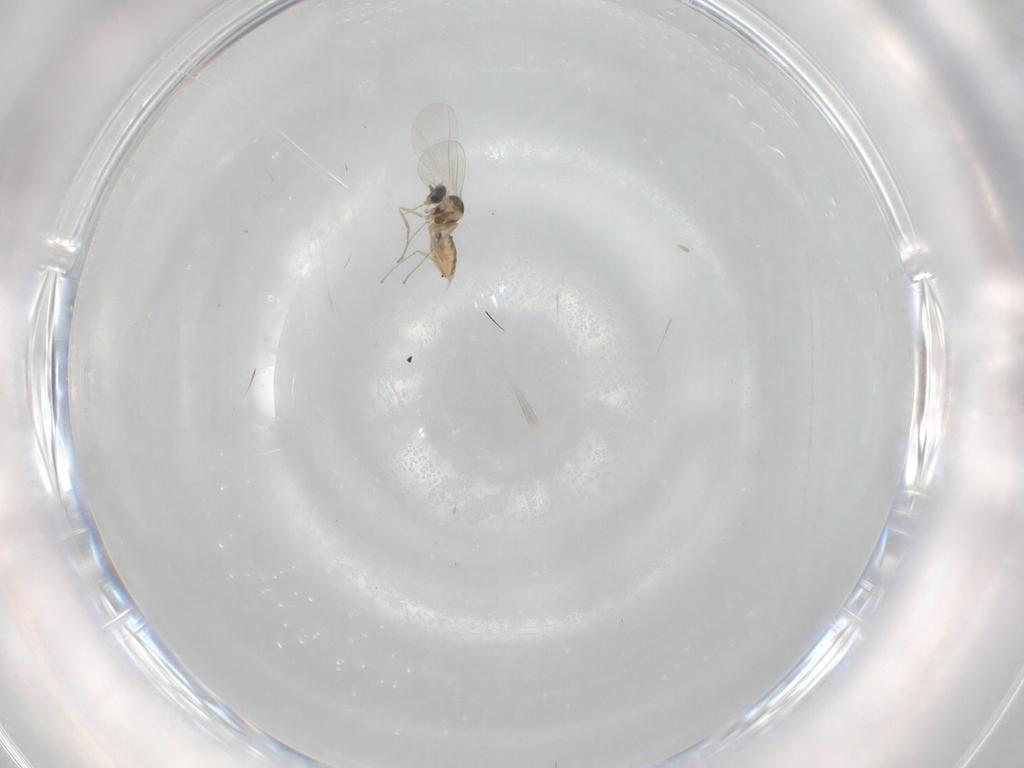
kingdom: Animalia
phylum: Arthropoda
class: Insecta
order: Diptera
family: Cecidomyiidae
